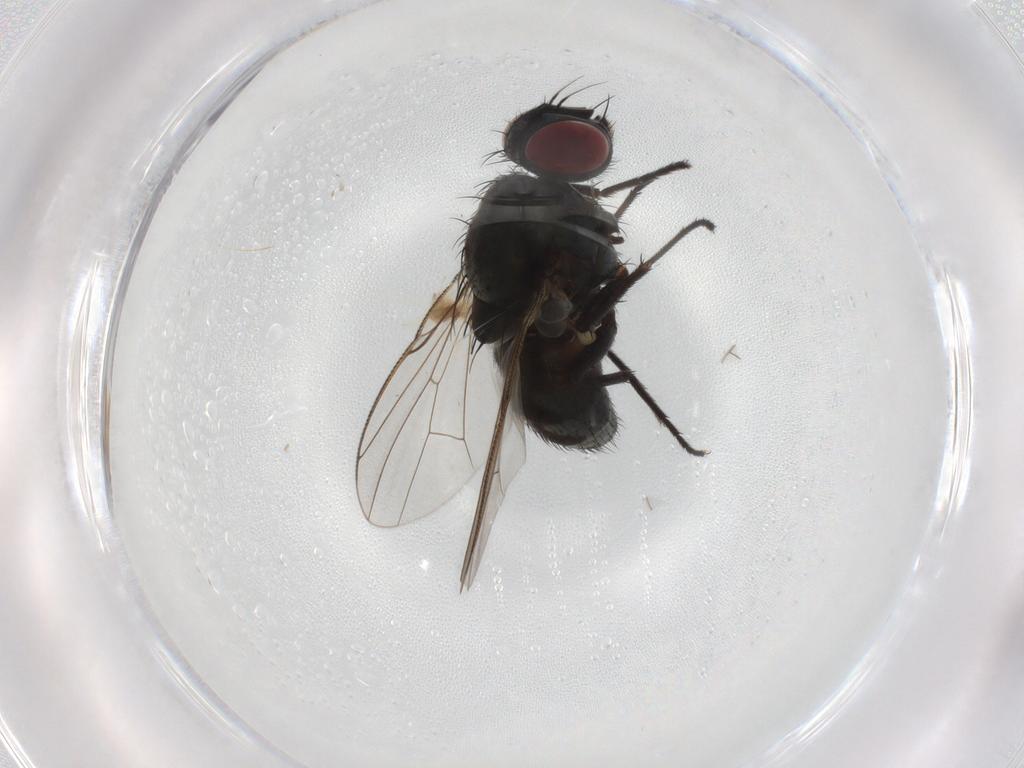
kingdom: Animalia
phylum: Arthropoda
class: Insecta
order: Diptera
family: Muscidae
